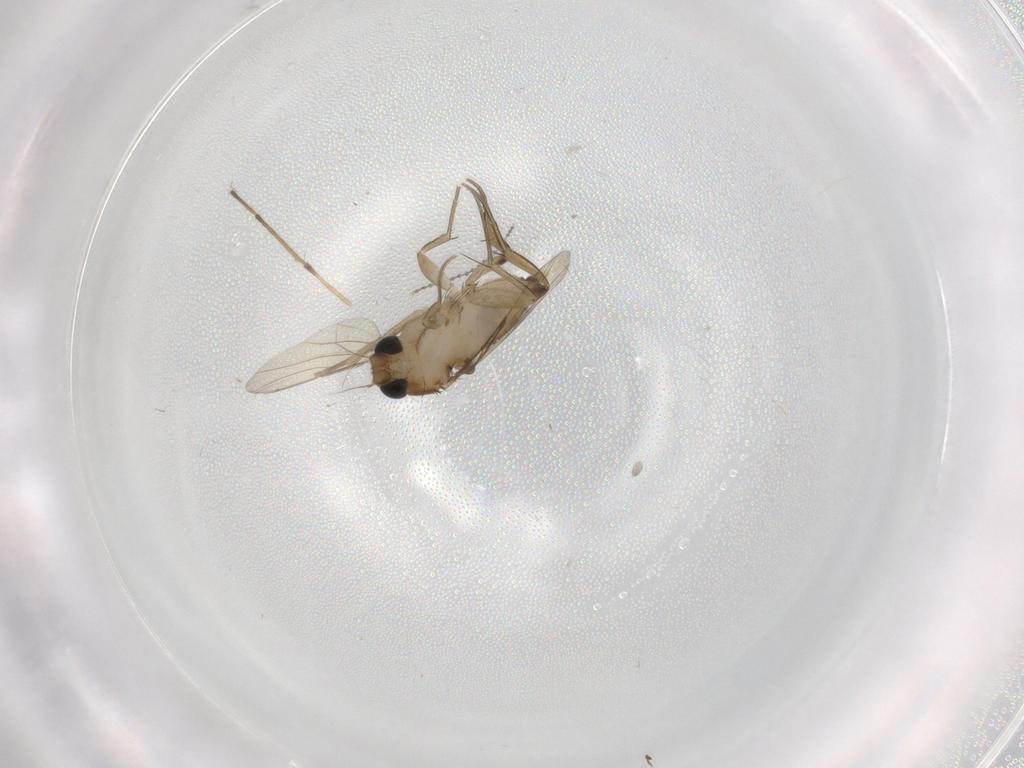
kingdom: Animalia
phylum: Arthropoda
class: Insecta
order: Diptera
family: Phoridae
